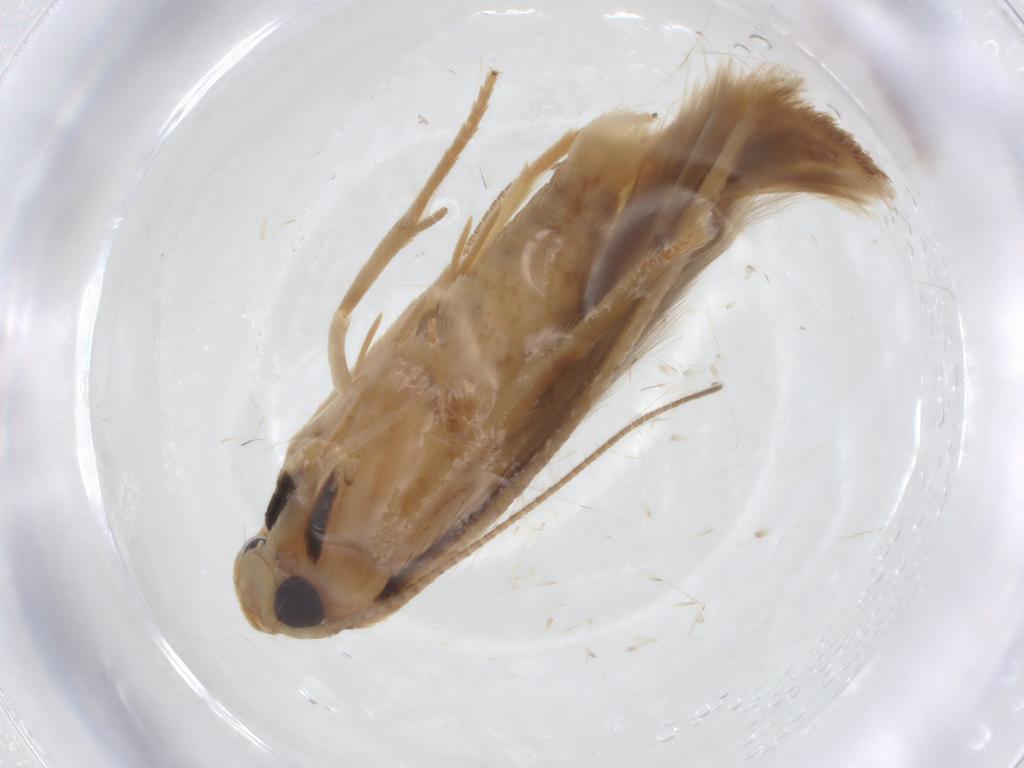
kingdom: Animalia
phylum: Arthropoda
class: Insecta
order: Lepidoptera
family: Stathmopodidae
